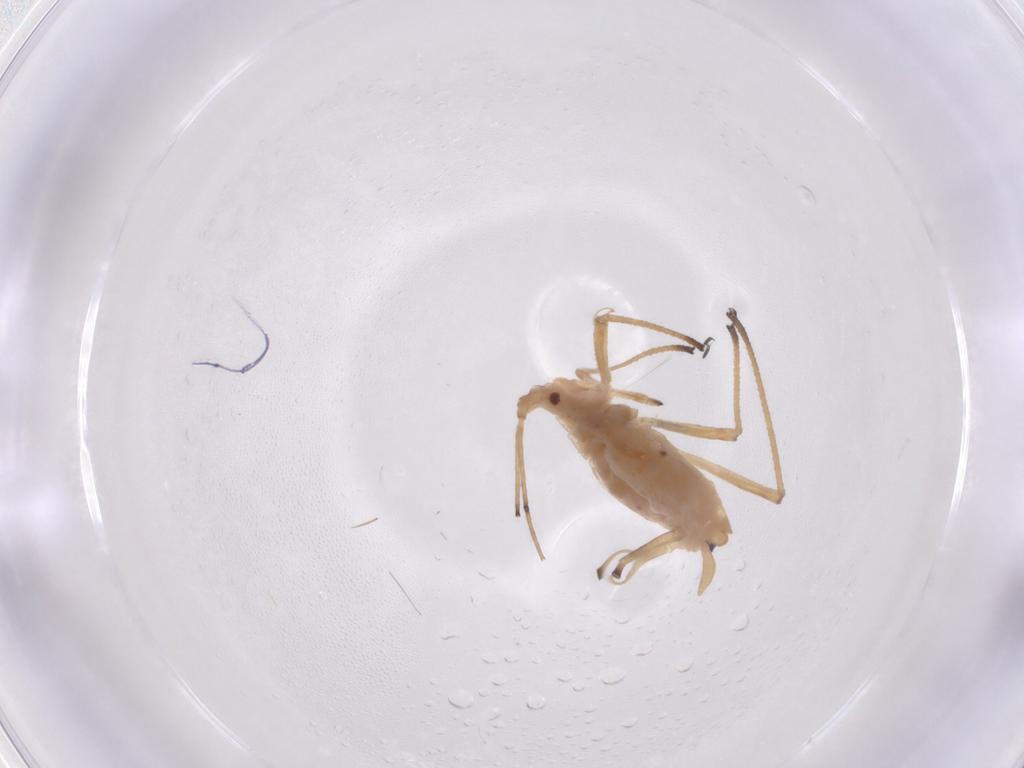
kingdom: Animalia
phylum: Arthropoda
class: Insecta
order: Hemiptera
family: Aphididae
